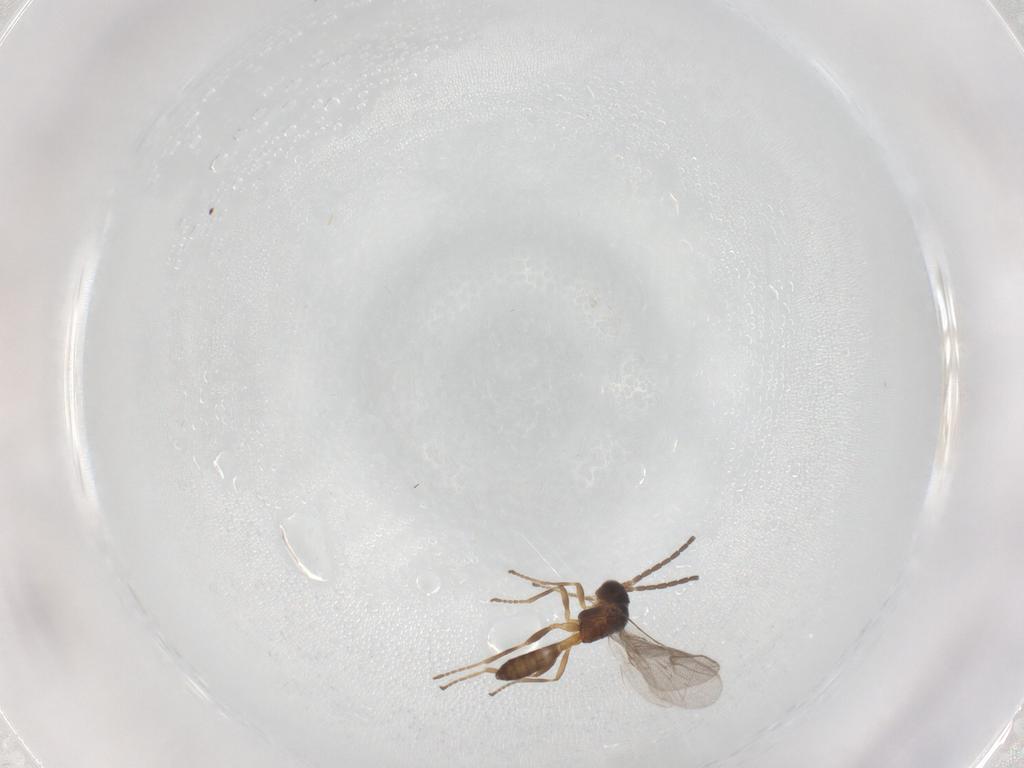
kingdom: Animalia
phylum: Arthropoda
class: Insecta
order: Hymenoptera
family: Braconidae
